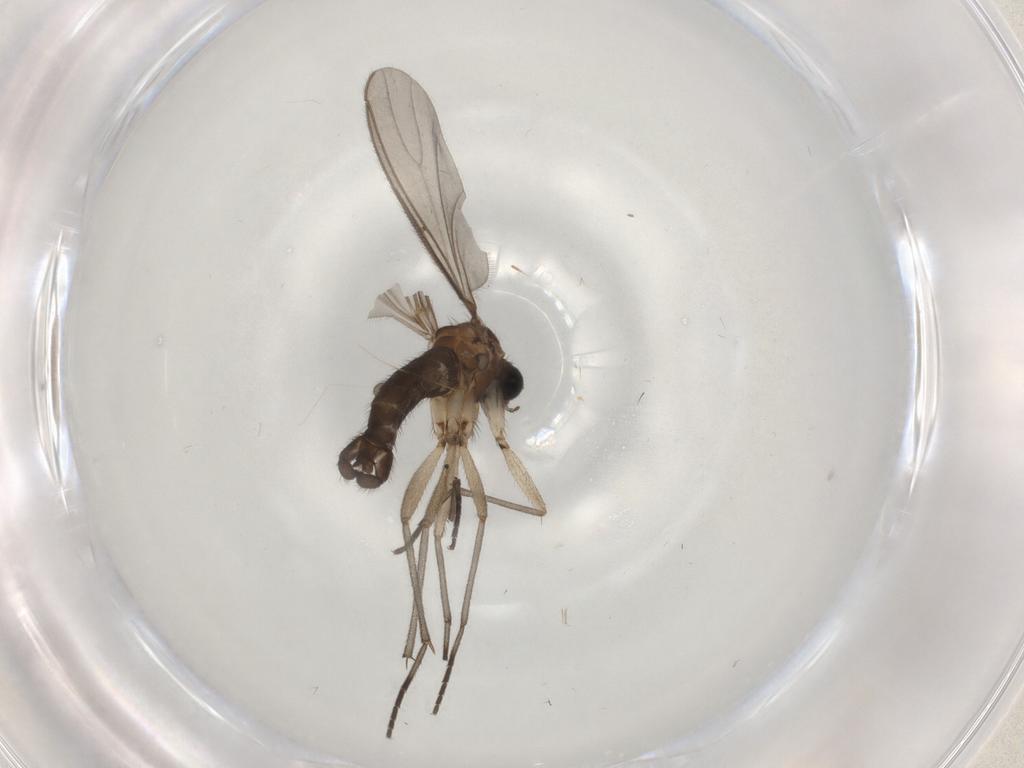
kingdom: Animalia
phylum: Arthropoda
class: Insecta
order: Diptera
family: Sciaridae
